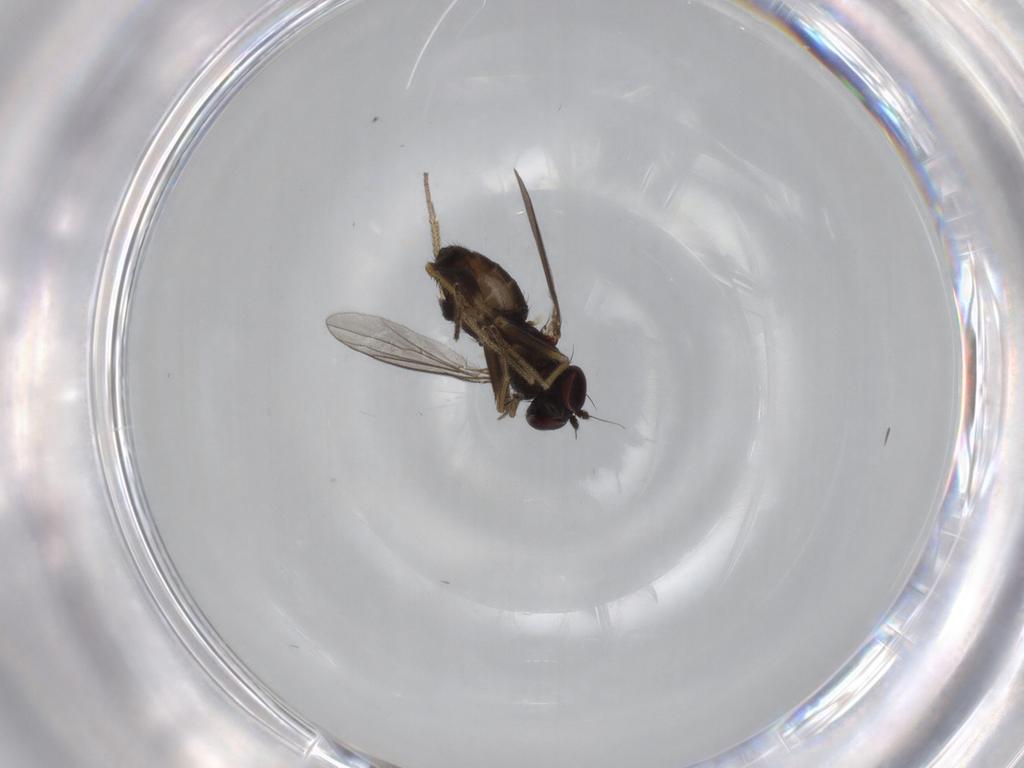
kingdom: Animalia
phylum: Arthropoda
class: Insecta
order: Diptera
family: Dolichopodidae
